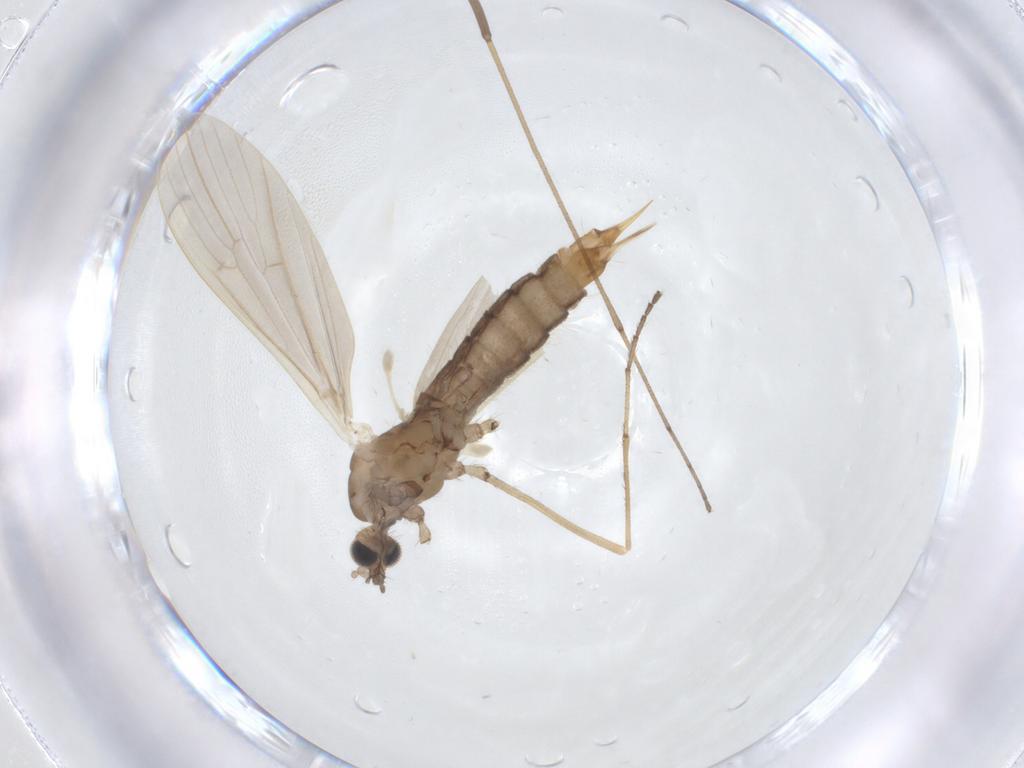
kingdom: Animalia
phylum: Arthropoda
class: Insecta
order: Diptera
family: Limoniidae
